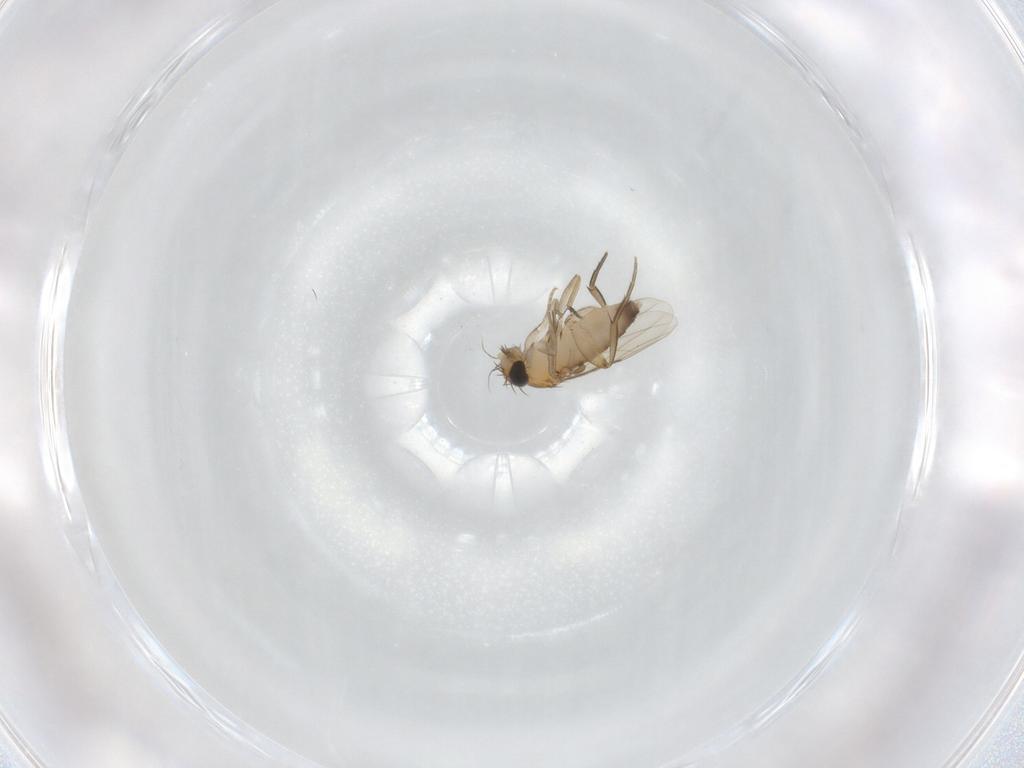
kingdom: Animalia
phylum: Arthropoda
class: Insecta
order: Diptera
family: Phoridae
